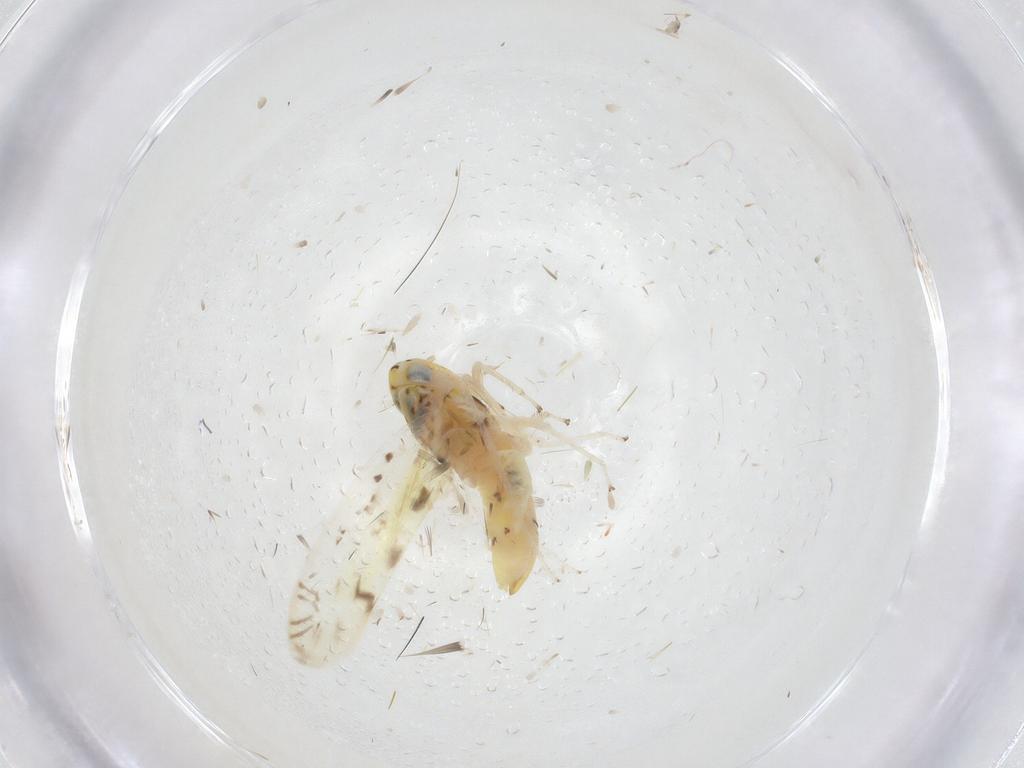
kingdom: Animalia
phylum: Arthropoda
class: Insecta
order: Hemiptera
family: Cicadellidae
